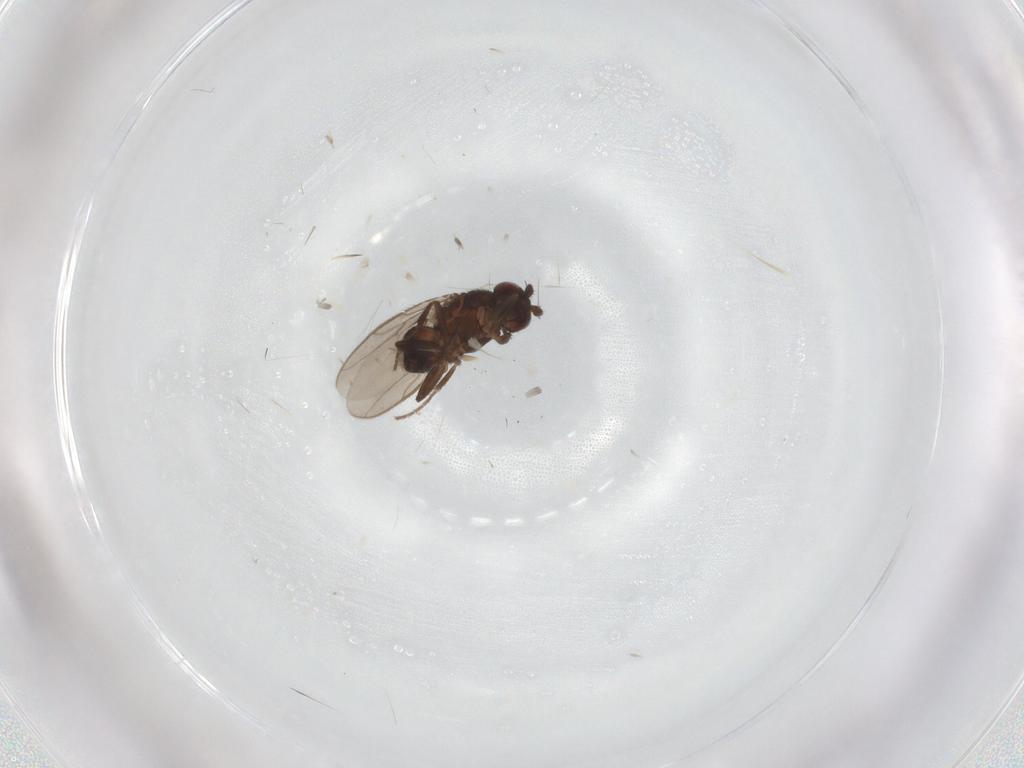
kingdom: Animalia
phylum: Arthropoda
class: Insecta
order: Diptera
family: Sphaeroceridae
